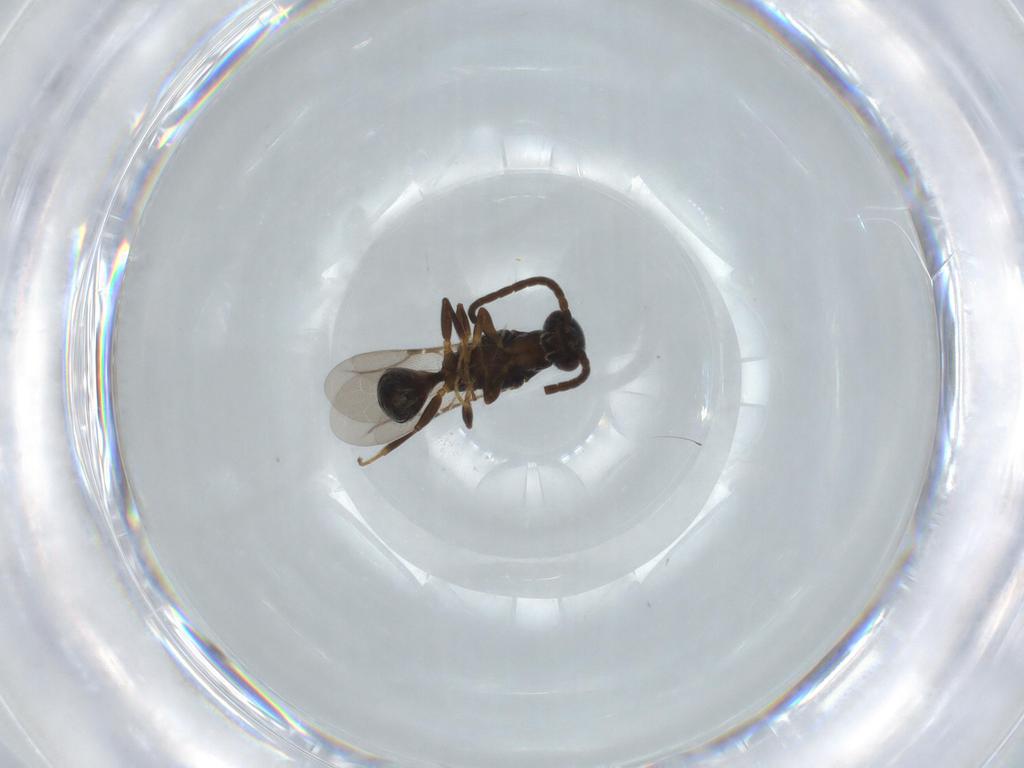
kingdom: Animalia
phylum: Arthropoda
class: Insecta
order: Hymenoptera
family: Bethylidae
